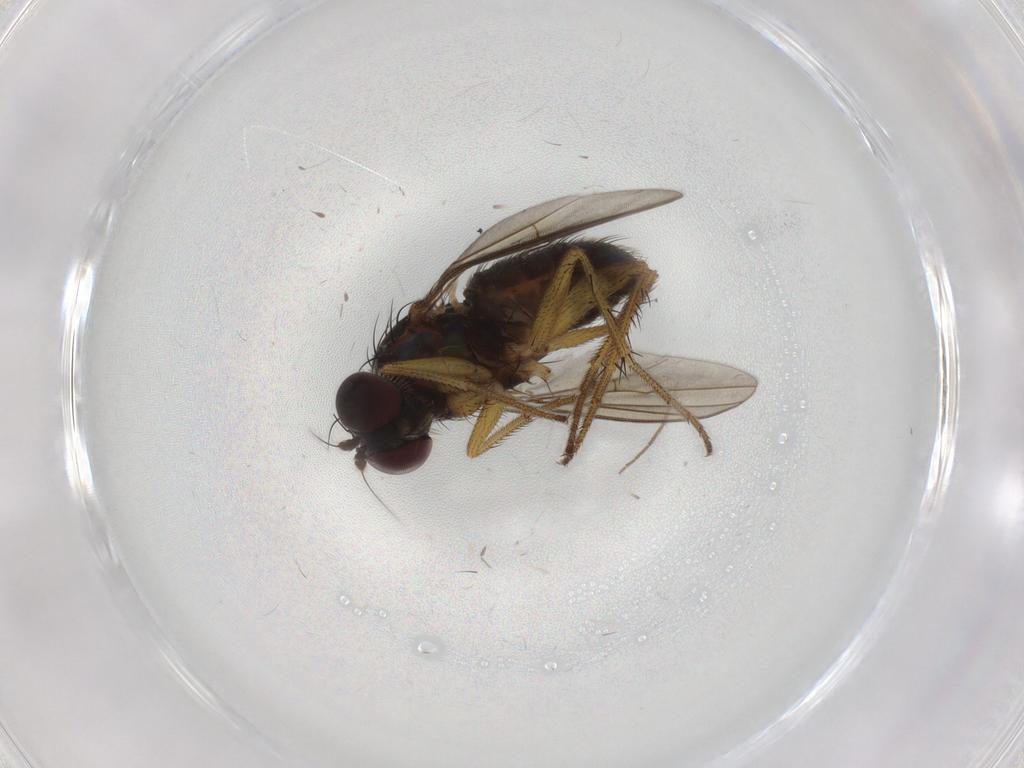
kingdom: Animalia
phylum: Arthropoda
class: Insecta
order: Diptera
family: Dolichopodidae
